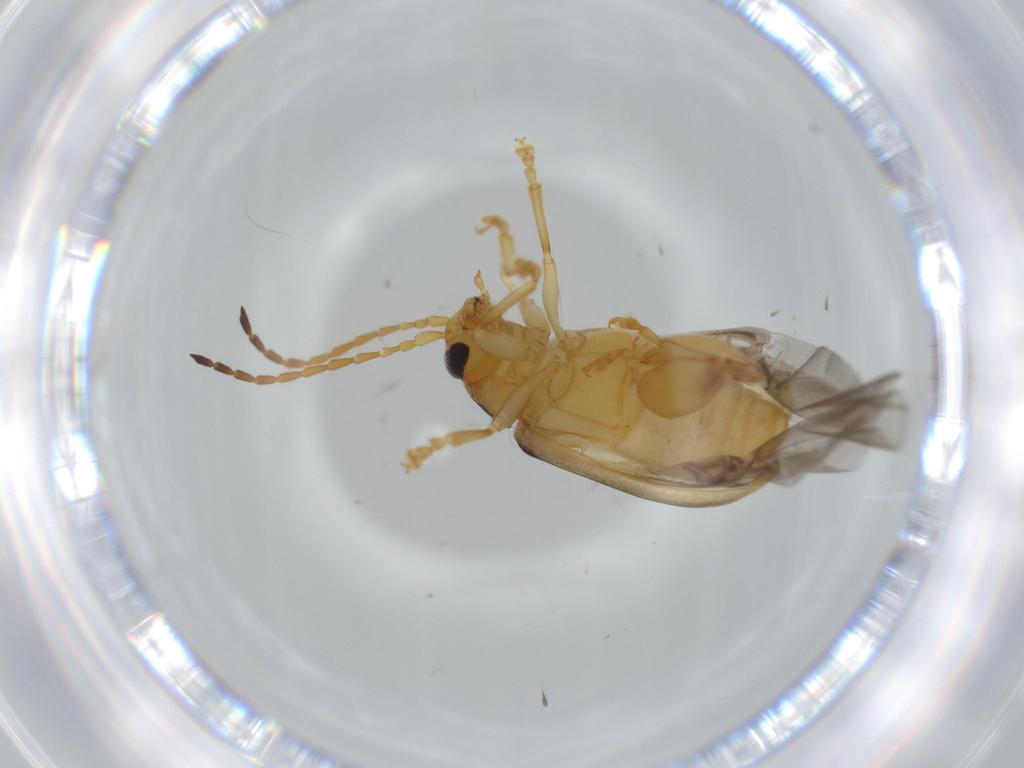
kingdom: Animalia
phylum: Arthropoda
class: Insecta
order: Coleoptera
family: Chrysomelidae
